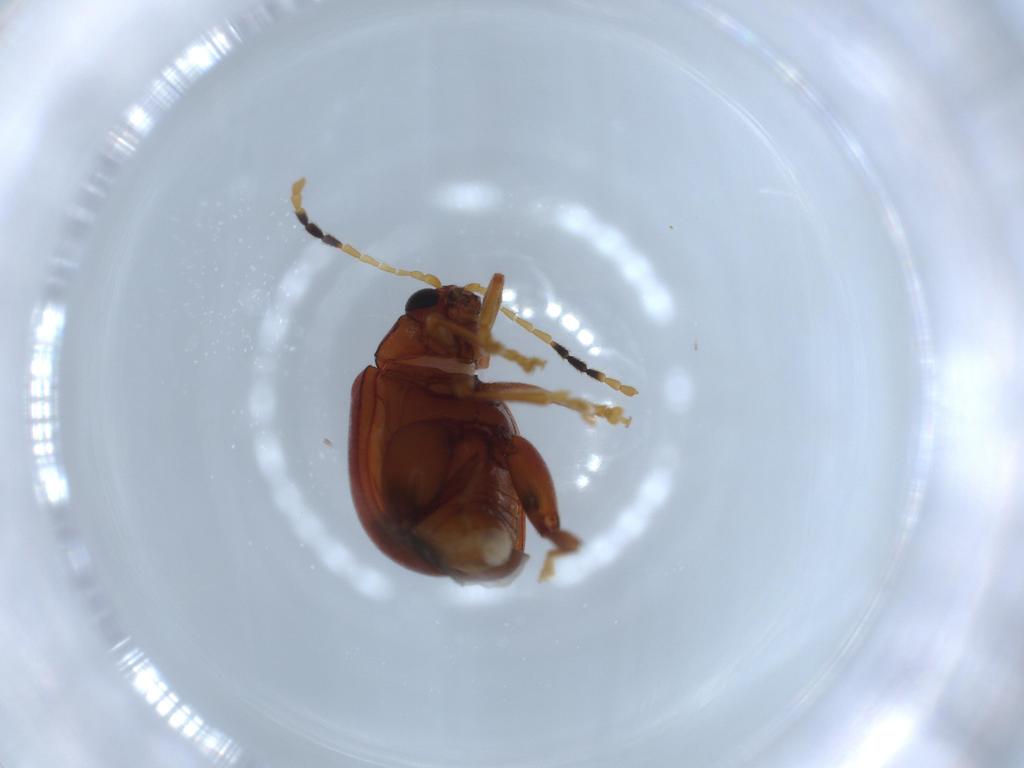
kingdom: Animalia
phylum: Arthropoda
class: Insecta
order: Coleoptera
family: Chrysomelidae
